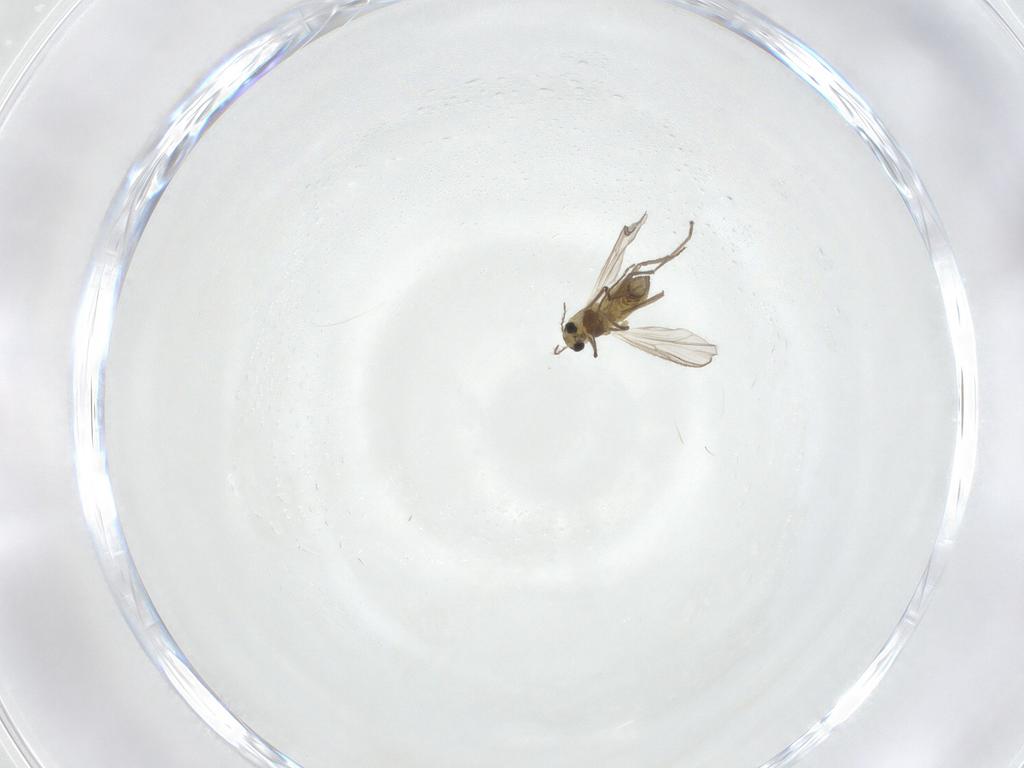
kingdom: Animalia
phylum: Arthropoda
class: Insecta
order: Diptera
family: Chironomidae
